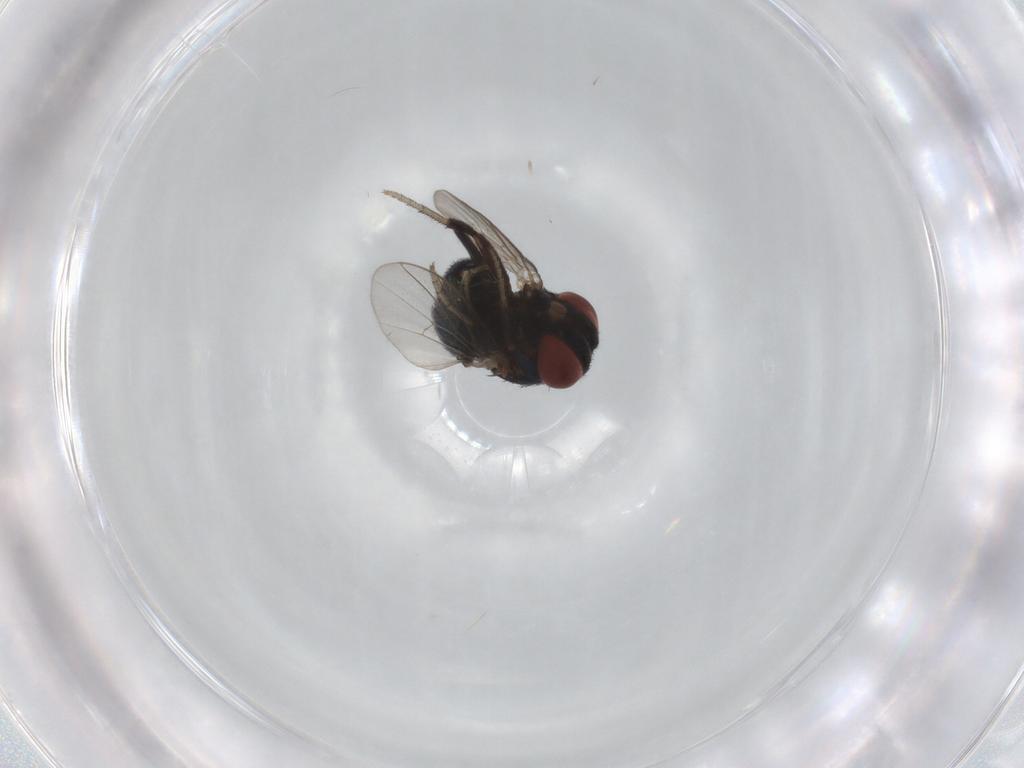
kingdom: Animalia
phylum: Arthropoda
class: Insecta
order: Diptera
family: Cryptochetidae
